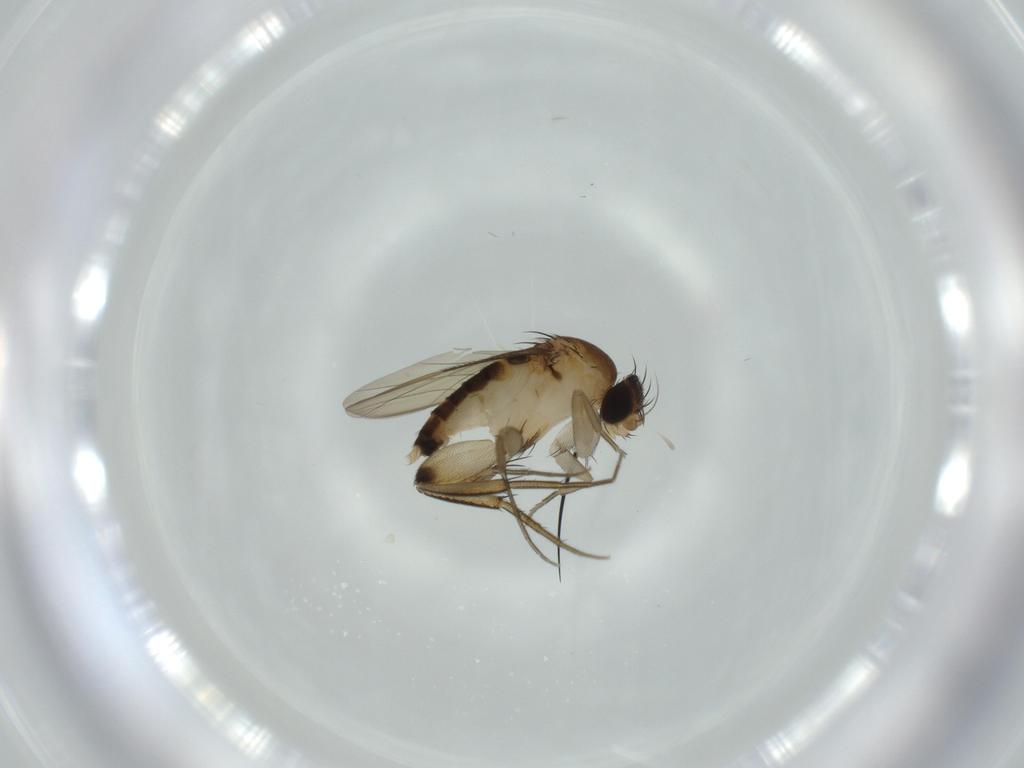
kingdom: Animalia
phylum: Arthropoda
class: Insecta
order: Diptera
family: Phoridae
